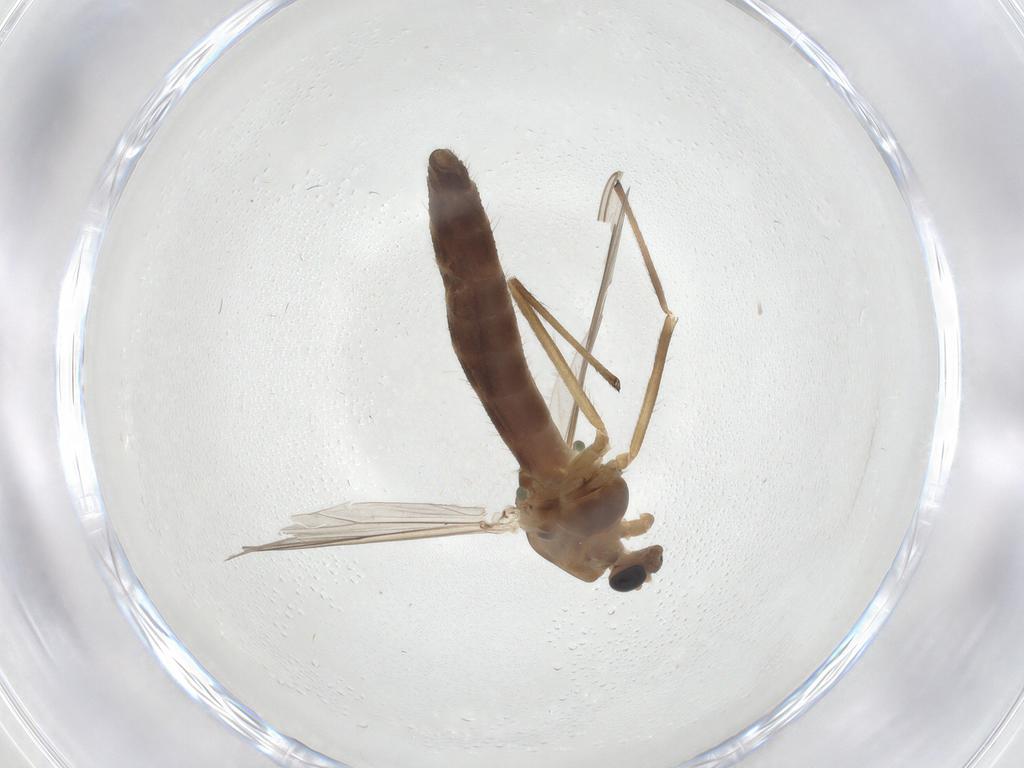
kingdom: Animalia
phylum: Arthropoda
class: Insecta
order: Diptera
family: Chironomidae
